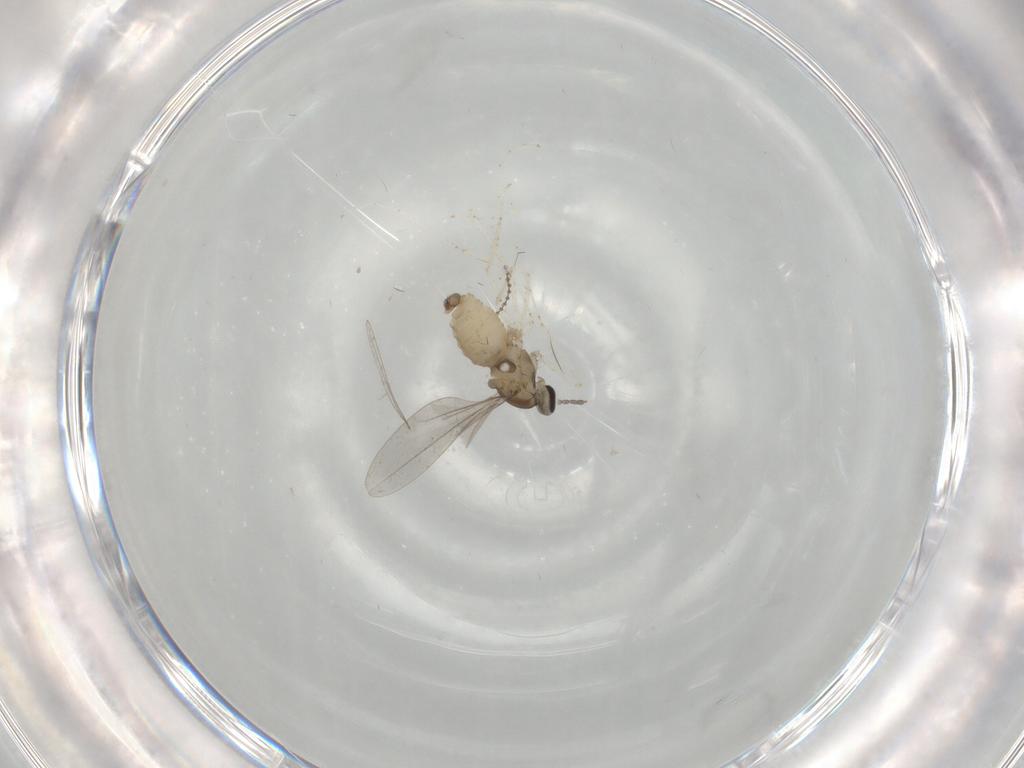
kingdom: Animalia
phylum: Arthropoda
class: Insecta
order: Diptera
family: Cecidomyiidae
